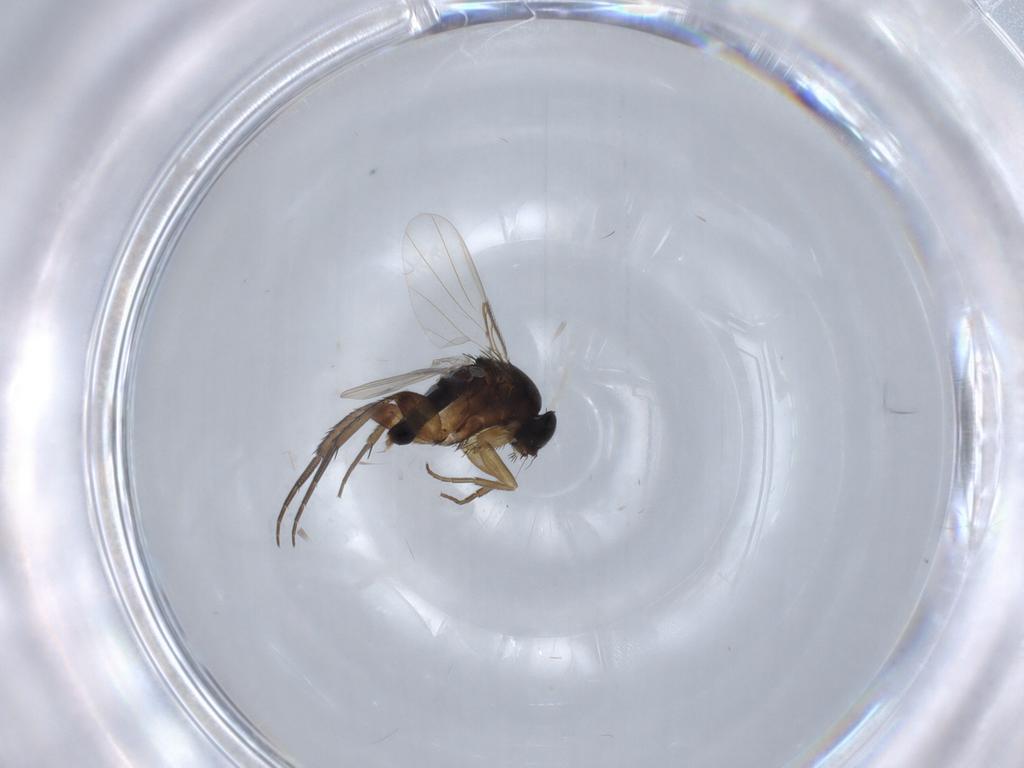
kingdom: Animalia
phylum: Arthropoda
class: Insecta
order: Diptera
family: Phoridae
